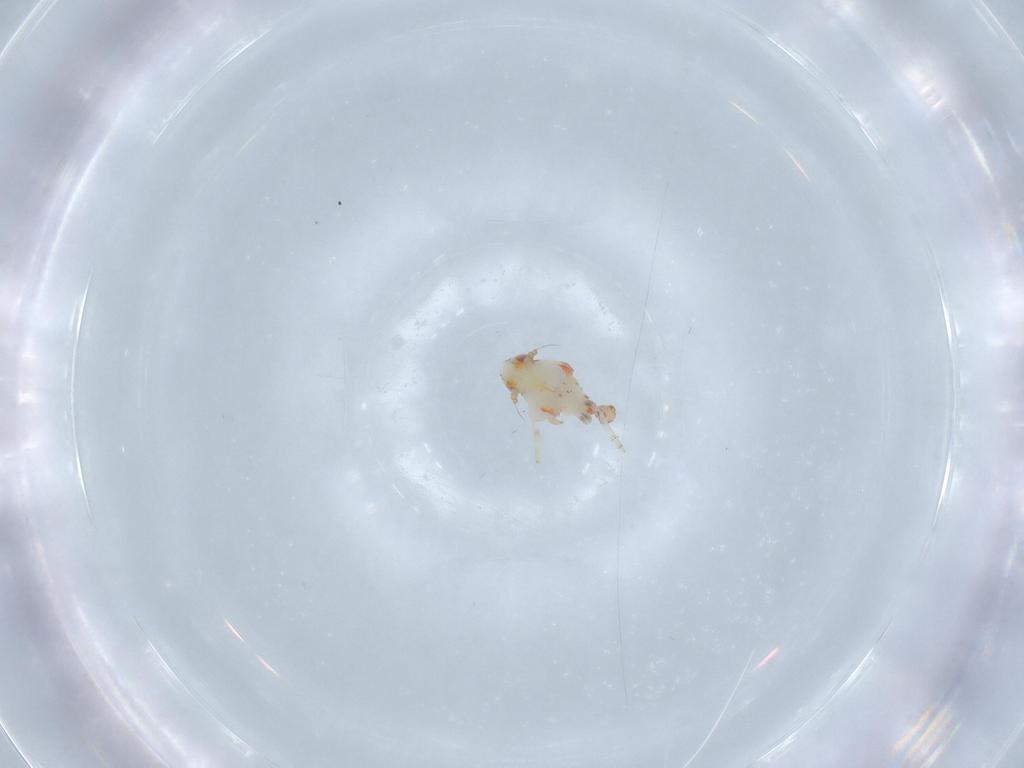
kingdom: Animalia
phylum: Arthropoda
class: Insecta
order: Hemiptera
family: Nogodinidae
